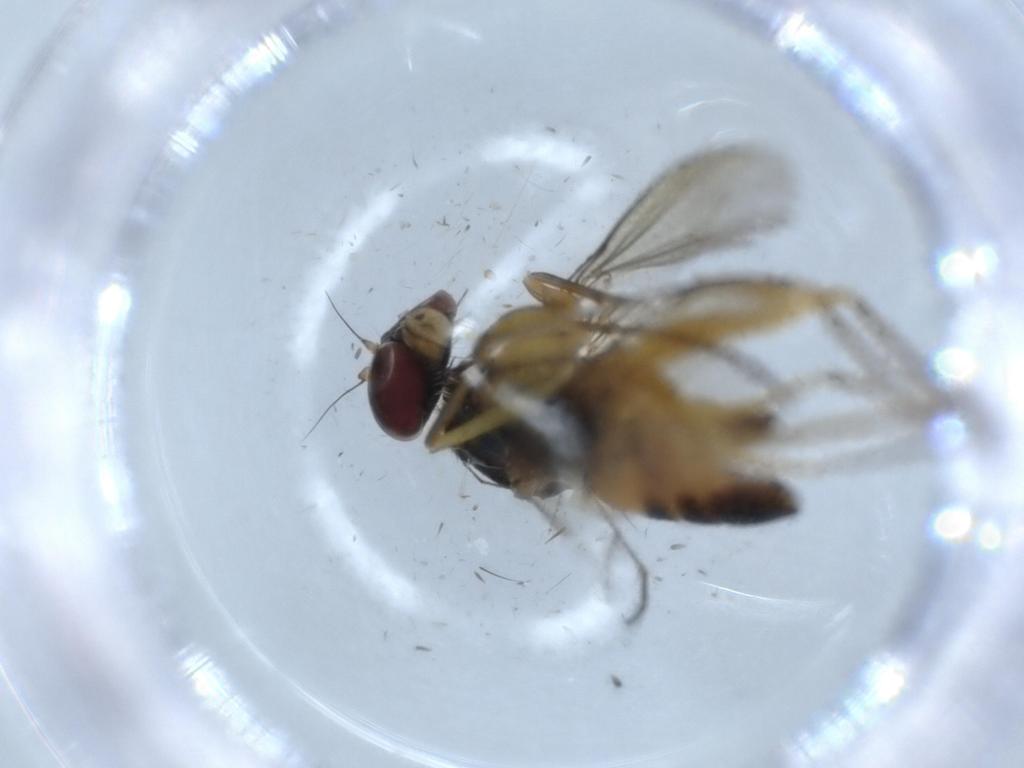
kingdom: Animalia
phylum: Arthropoda
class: Insecta
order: Diptera
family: Chironomidae
